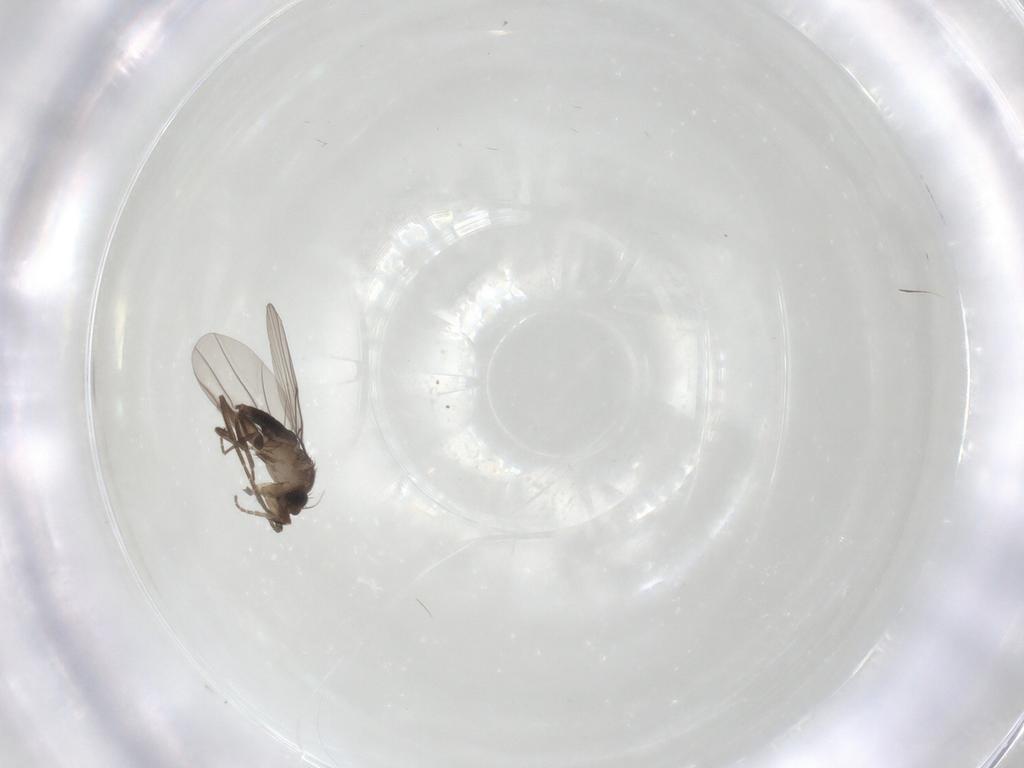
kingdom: Animalia
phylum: Arthropoda
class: Insecta
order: Diptera
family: Phoridae
